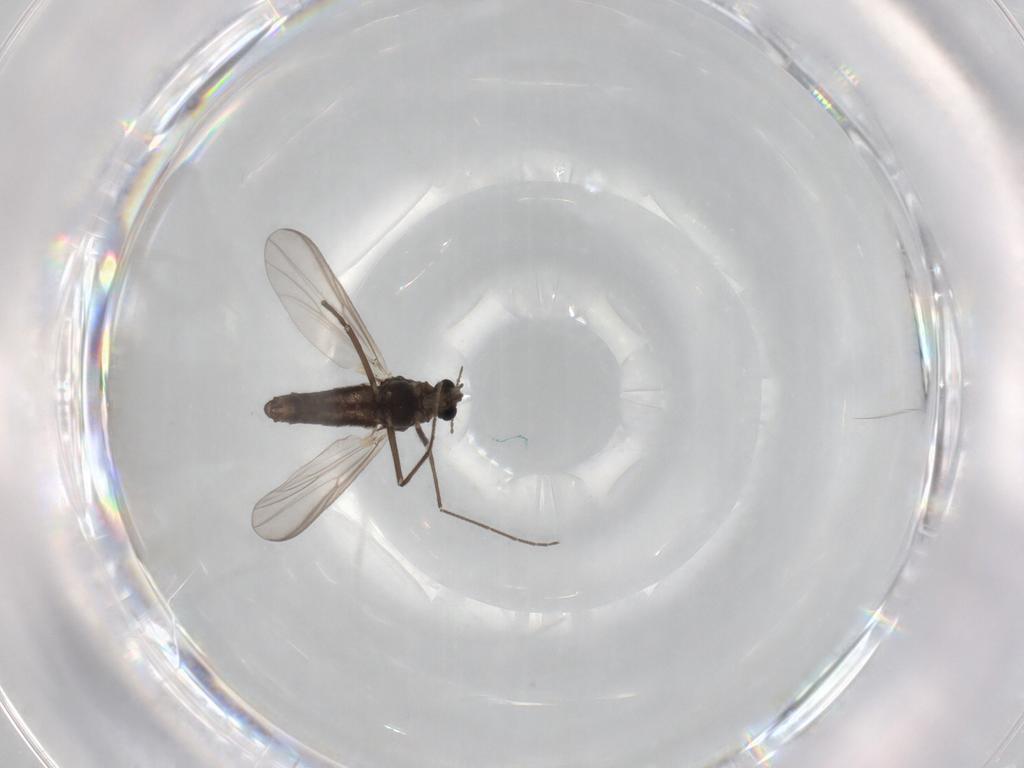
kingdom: Animalia
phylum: Arthropoda
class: Insecta
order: Diptera
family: Chironomidae
